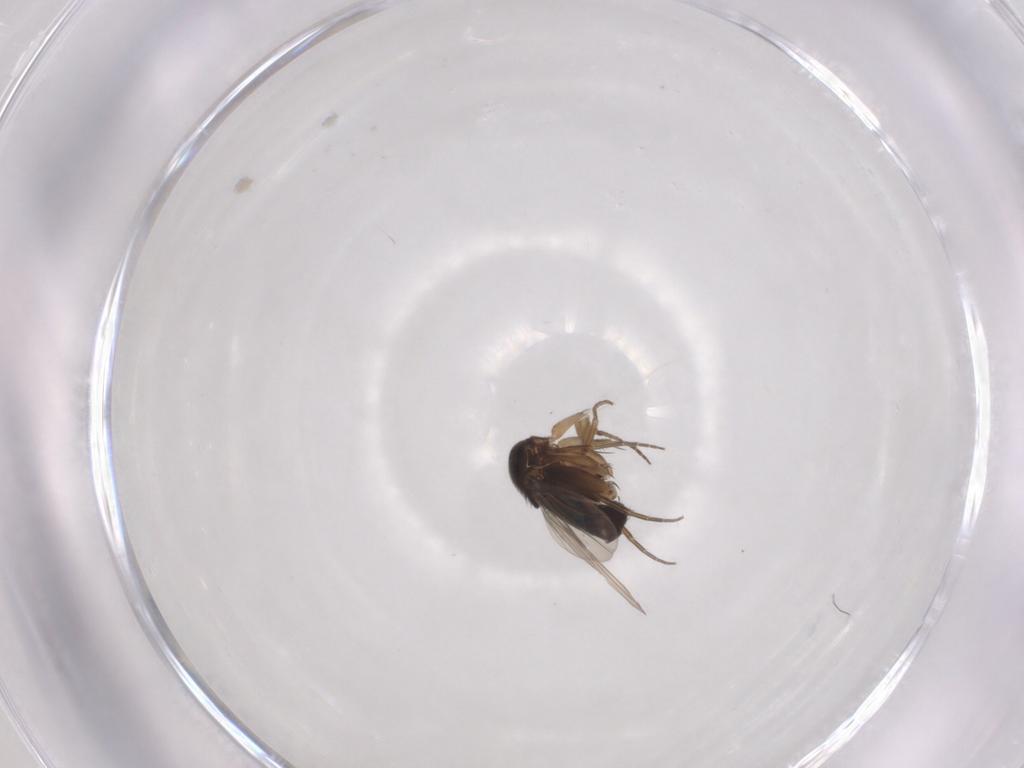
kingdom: Animalia
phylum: Arthropoda
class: Insecta
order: Diptera
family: Phoridae
